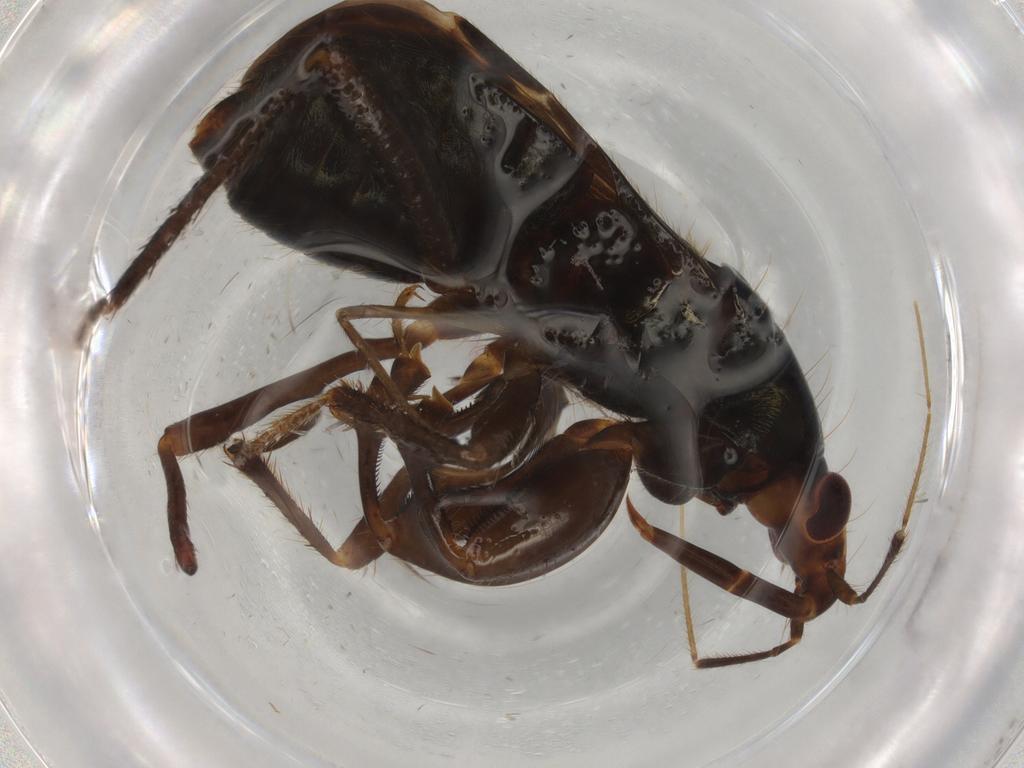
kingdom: Animalia
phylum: Arthropoda
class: Insecta
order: Hemiptera
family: Nabidae
